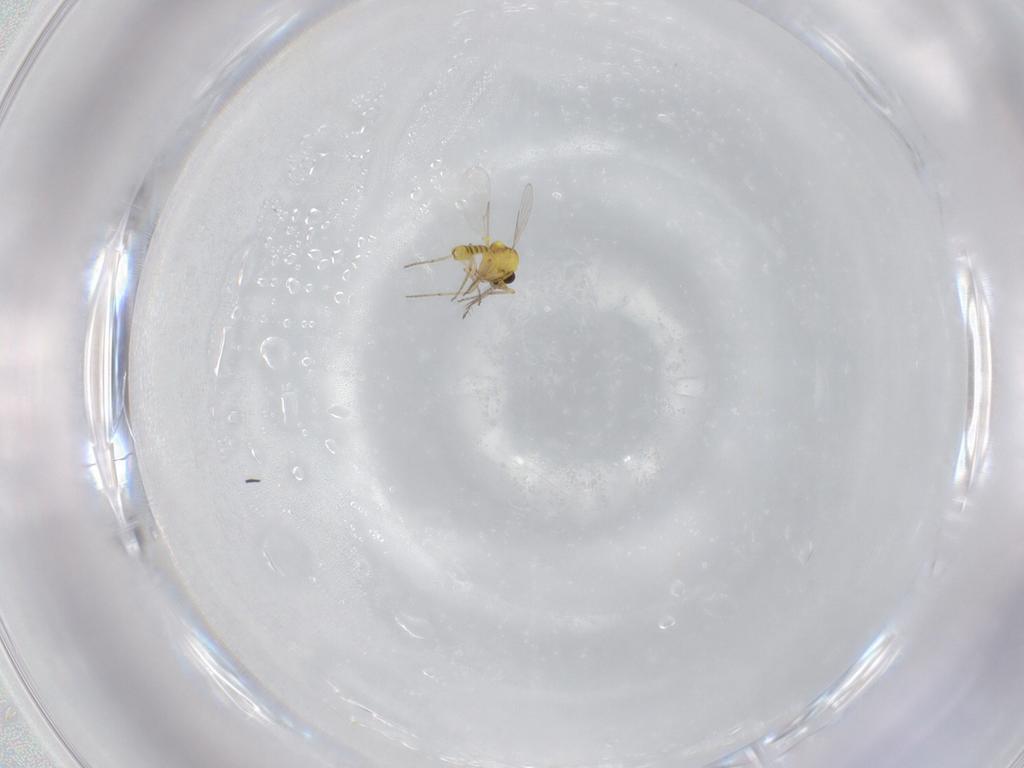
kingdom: Animalia
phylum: Arthropoda
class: Insecta
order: Diptera
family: Ceratopogonidae
